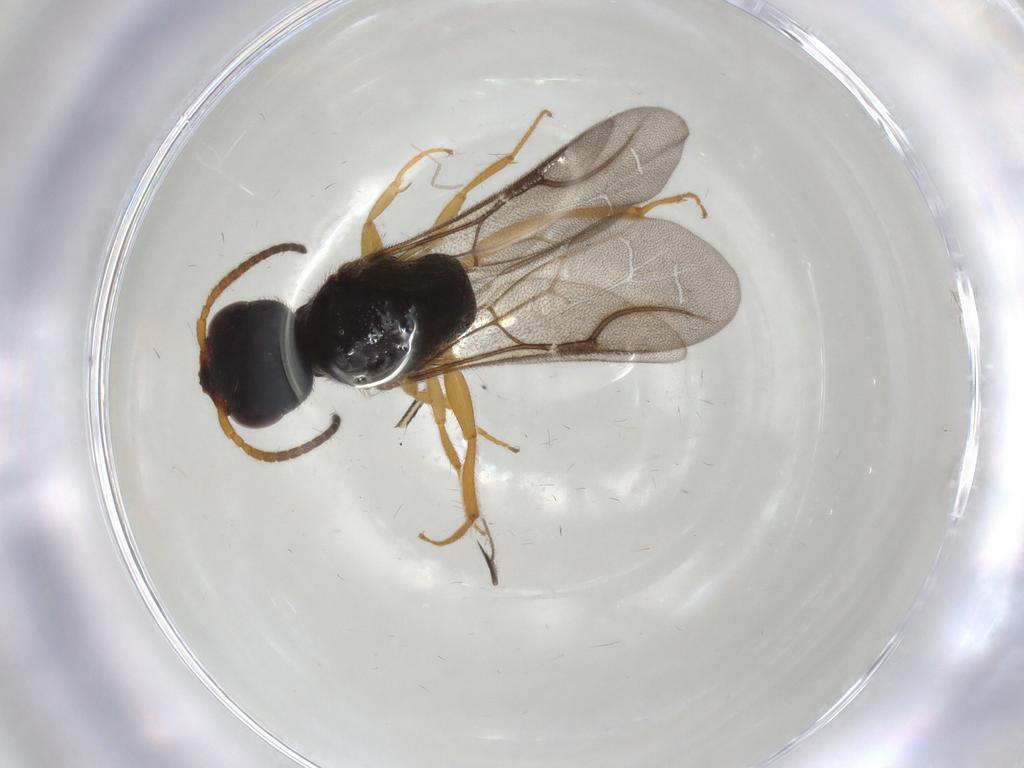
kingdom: Animalia
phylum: Arthropoda
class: Insecta
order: Hymenoptera
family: Bethylidae
